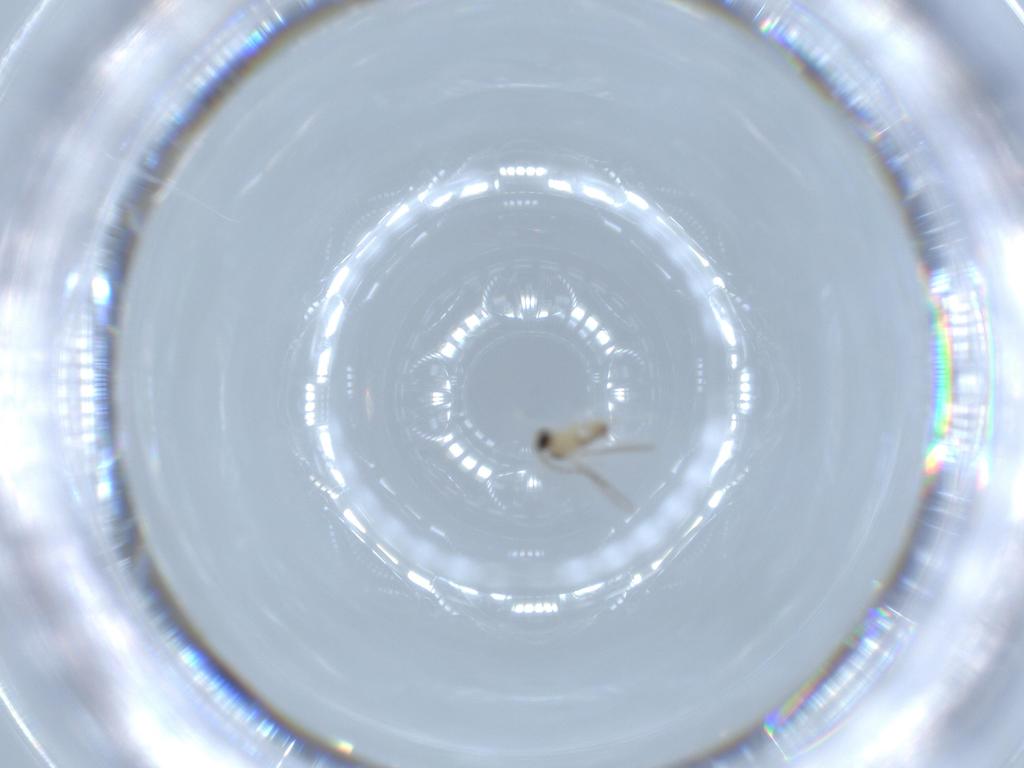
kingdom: Animalia
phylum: Arthropoda
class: Insecta
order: Diptera
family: Cecidomyiidae
